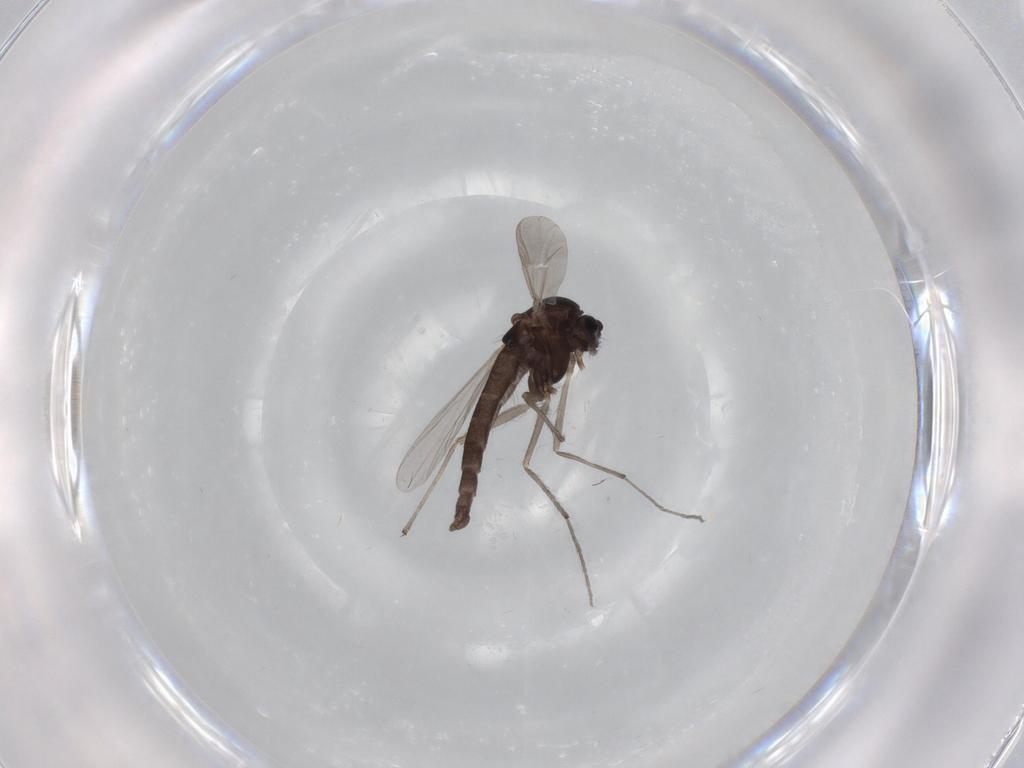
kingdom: Animalia
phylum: Arthropoda
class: Insecta
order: Diptera
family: Chironomidae
